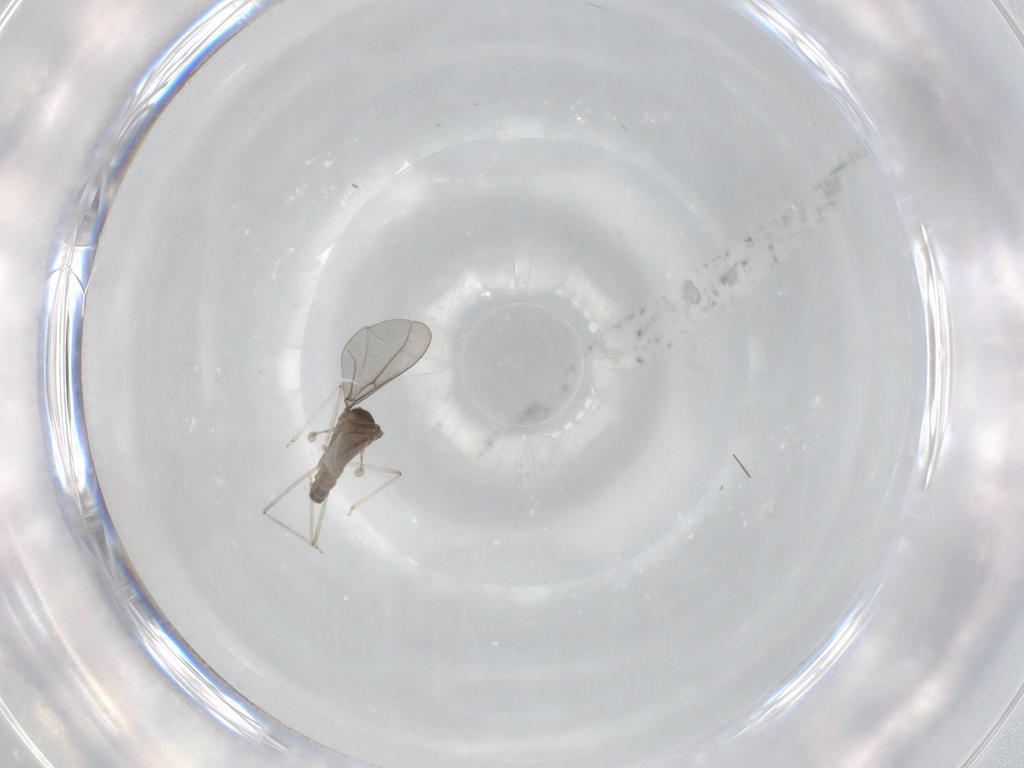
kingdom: Animalia
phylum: Arthropoda
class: Insecta
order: Diptera
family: Cecidomyiidae
